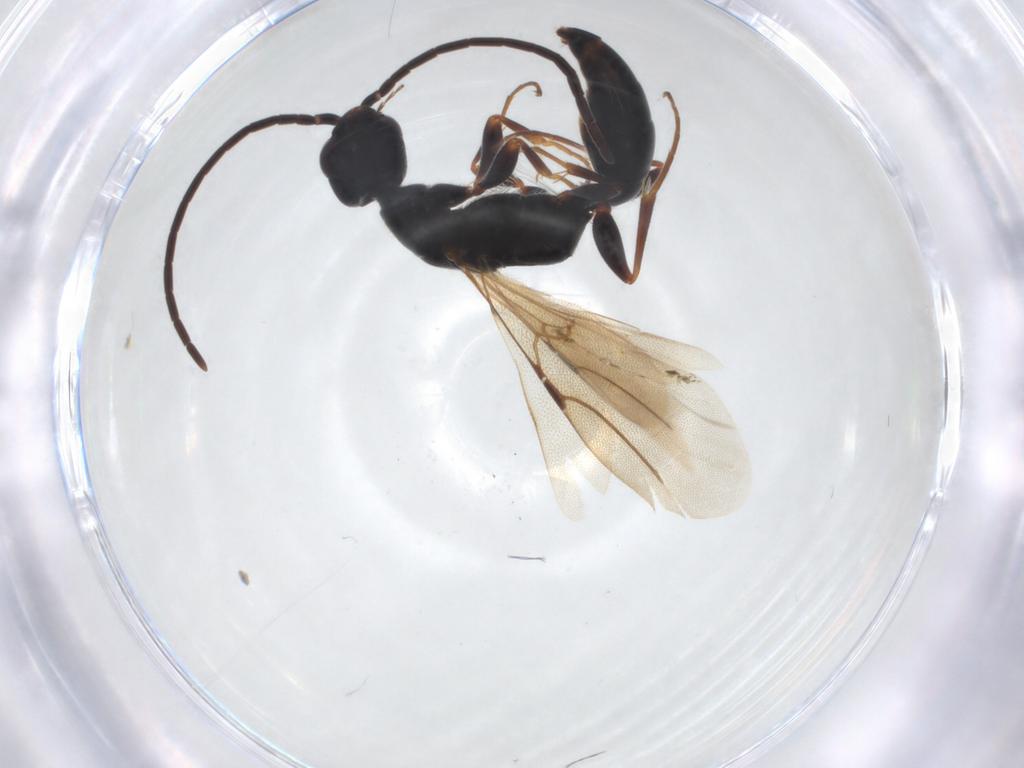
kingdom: Animalia
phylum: Arthropoda
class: Insecta
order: Hymenoptera
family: Bethylidae
